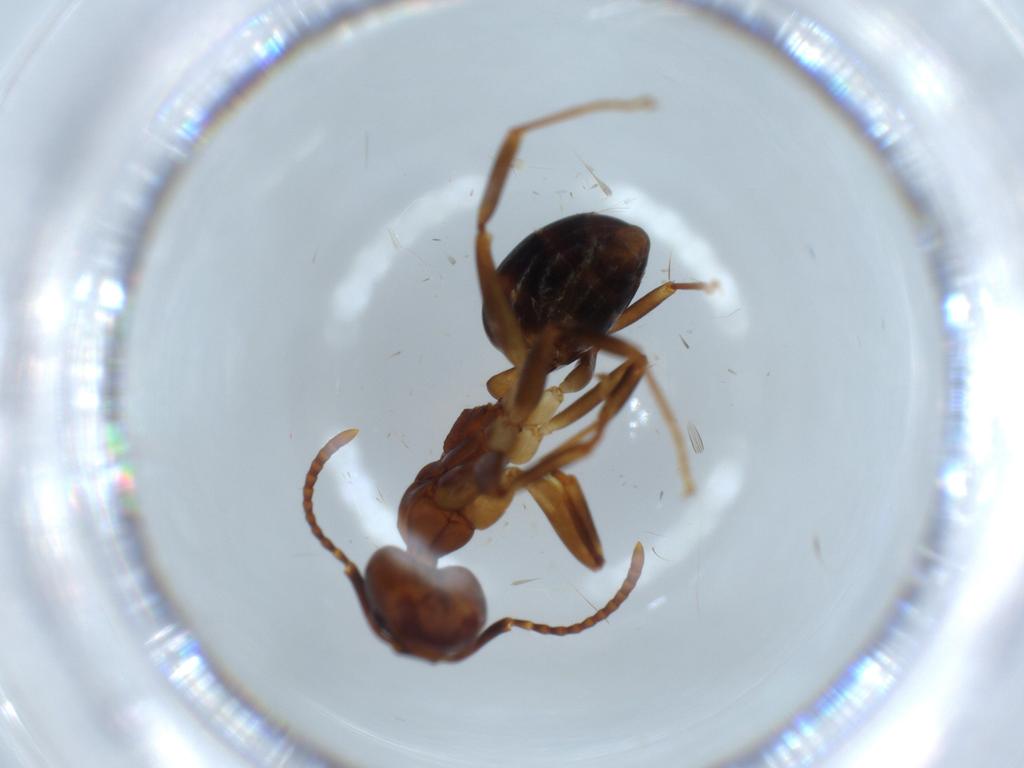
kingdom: Animalia
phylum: Arthropoda
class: Insecta
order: Hymenoptera
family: Formicidae
